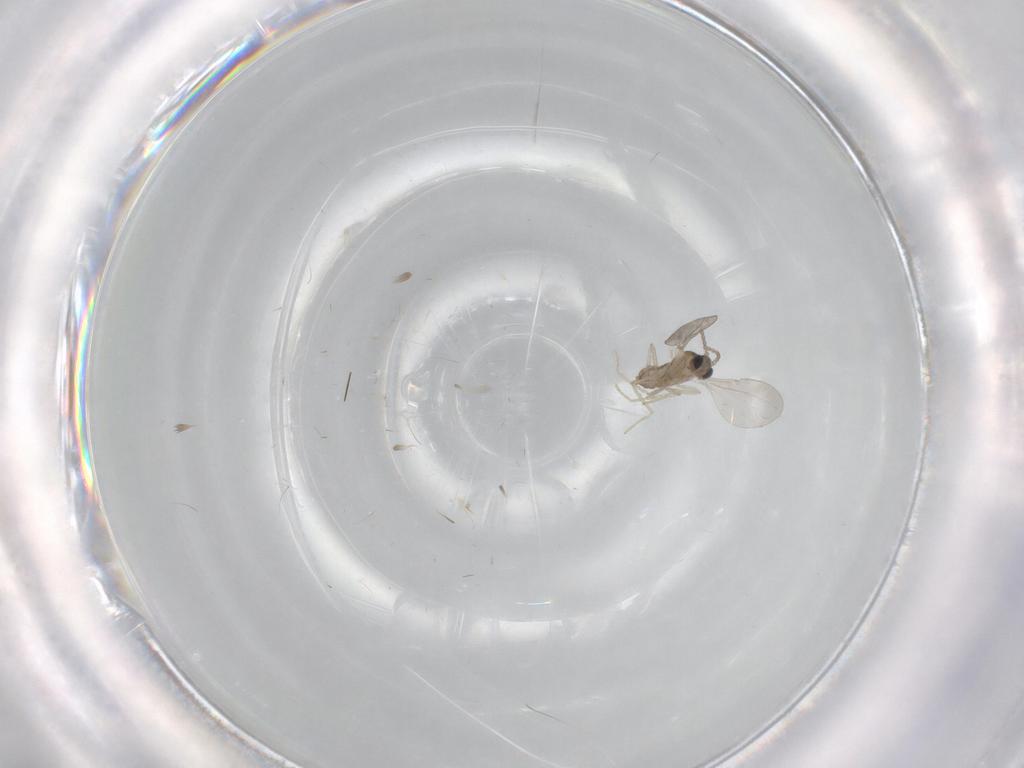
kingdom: Animalia
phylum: Arthropoda
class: Insecta
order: Diptera
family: Cecidomyiidae
